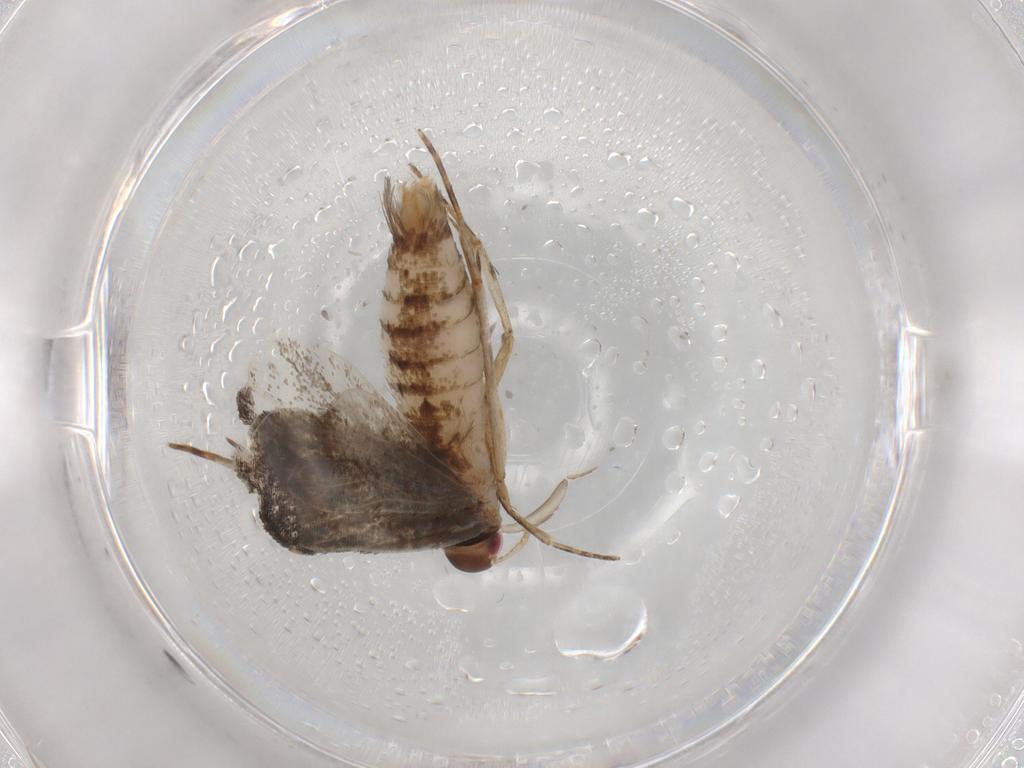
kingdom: Animalia
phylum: Arthropoda
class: Insecta
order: Lepidoptera
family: Gelechiidae
